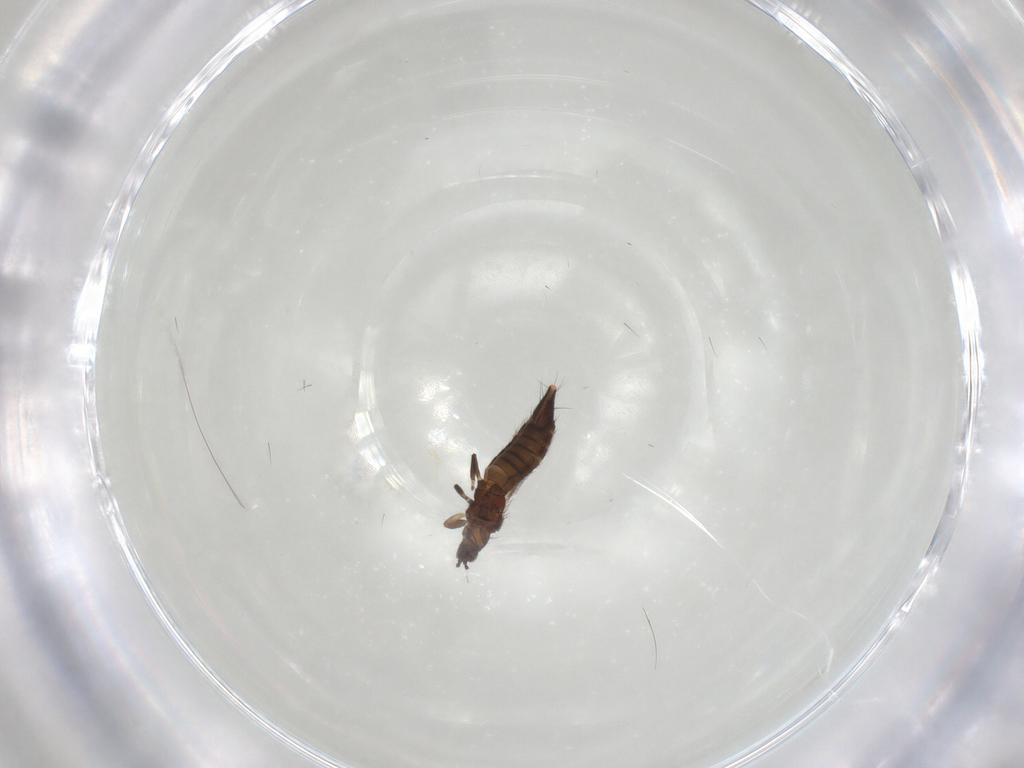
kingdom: Animalia
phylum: Arthropoda
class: Insecta
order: Thysanoptera
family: Thripidae
